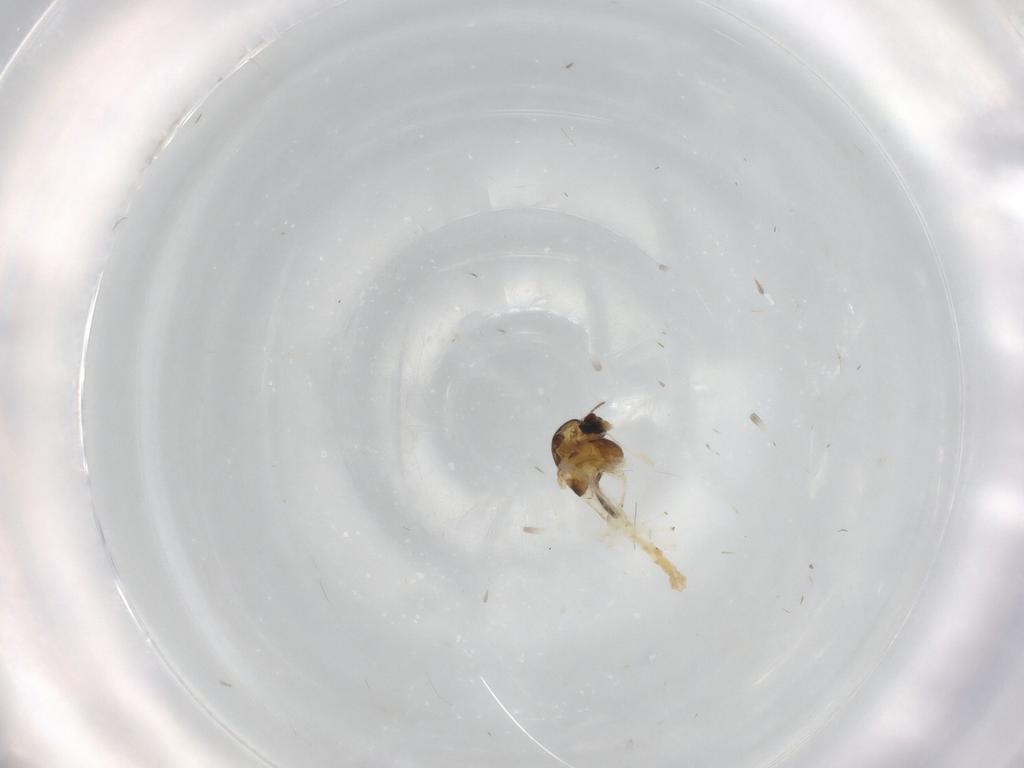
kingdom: Animalia
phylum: Arthropoda
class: Insecta
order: Diptera
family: Chironomidae
